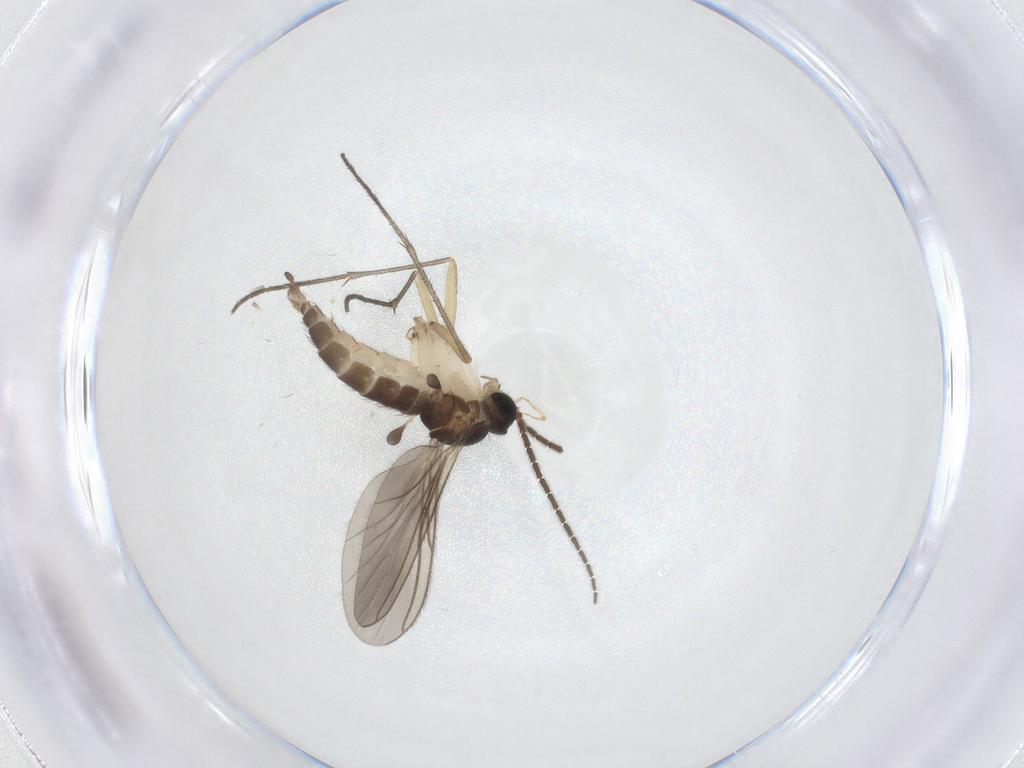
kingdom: Animalia
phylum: Arthropoda
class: Insecta
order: Diptera
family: Sciaridae
